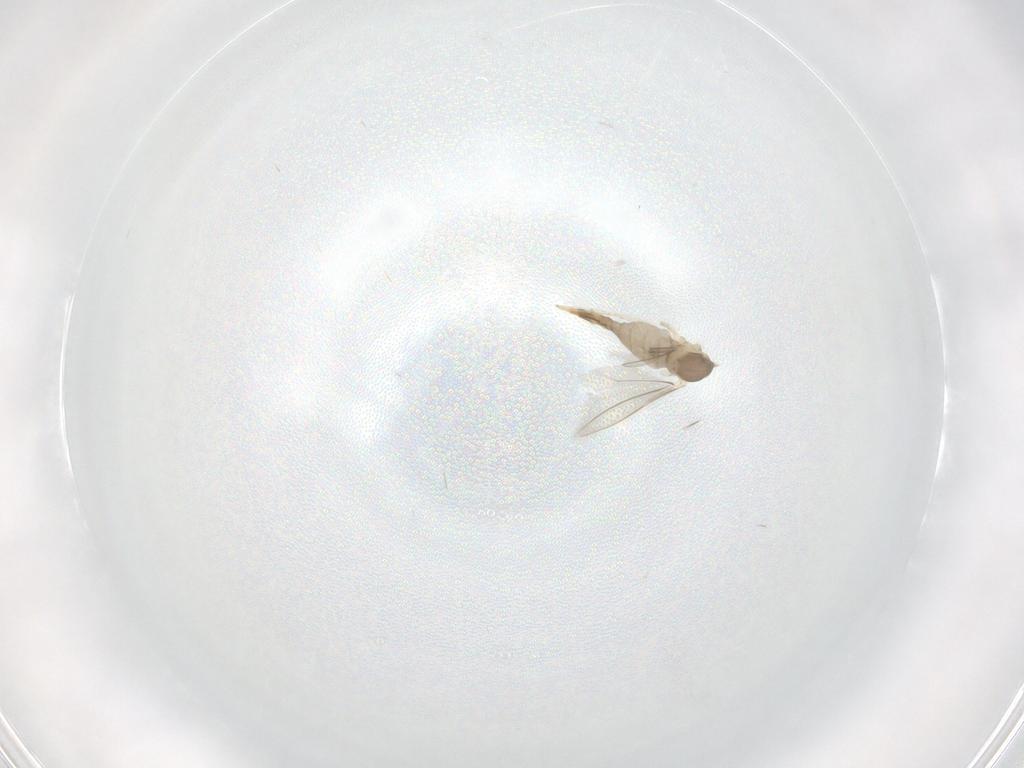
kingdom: Animalia
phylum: Arthropoda
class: Insecta
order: Diptera
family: Cecidomyiidae
